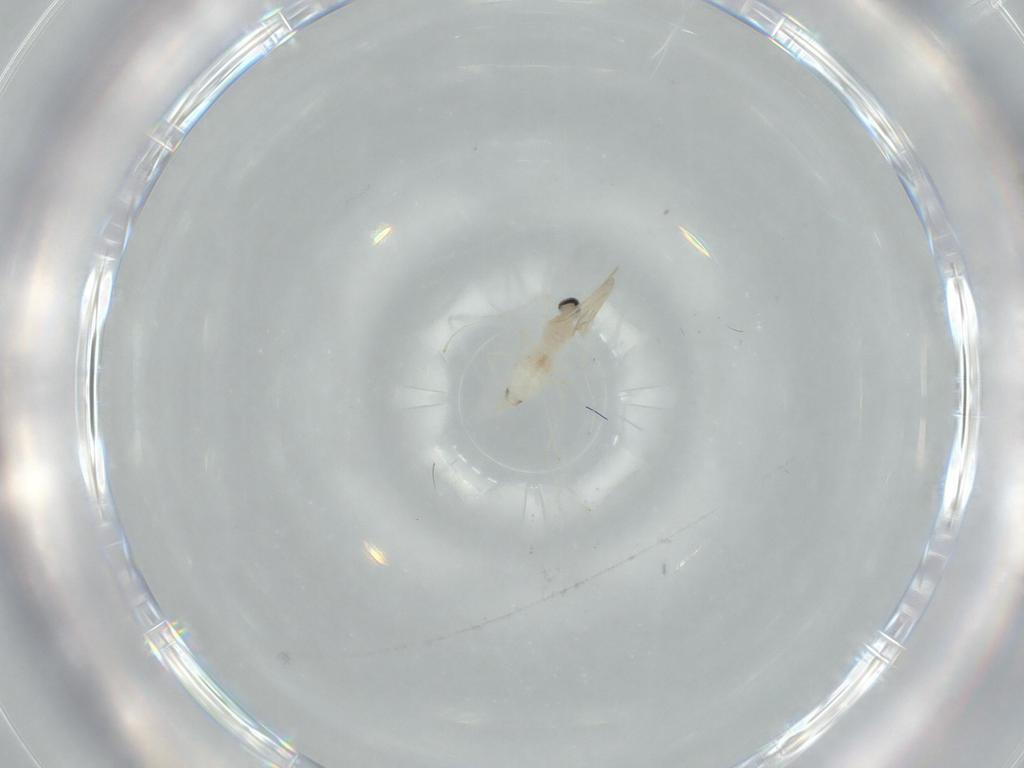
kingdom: Animalia
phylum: Arthropoda
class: Insecta
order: Diptera
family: Cecidomyiidae
